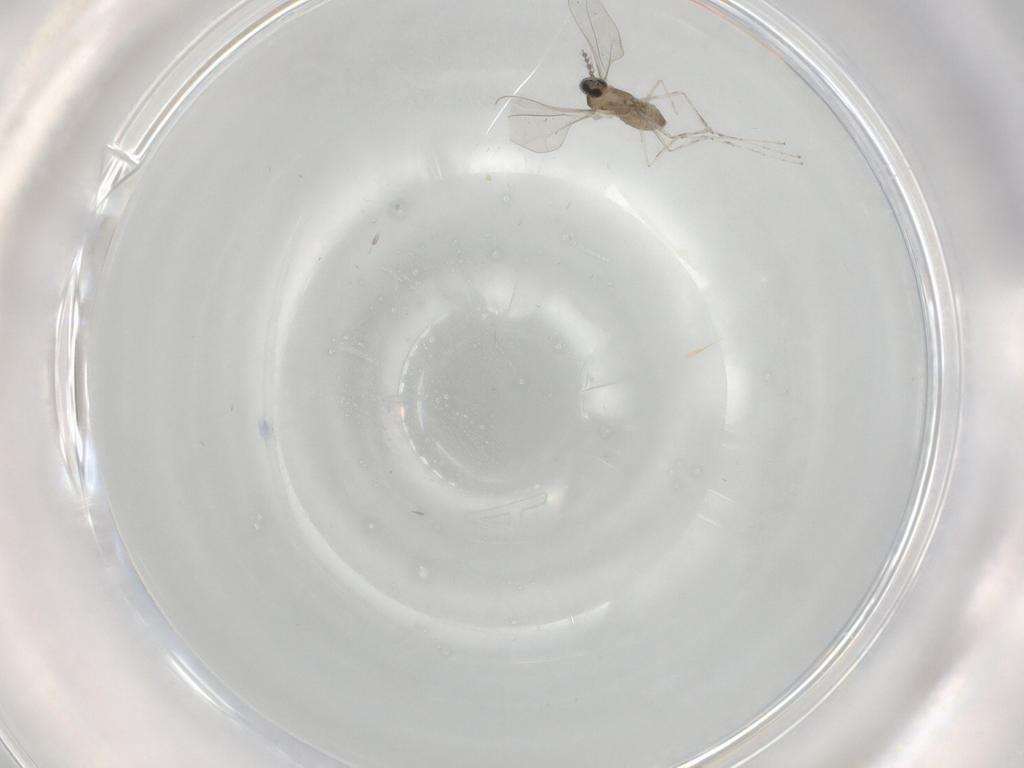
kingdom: Animalia
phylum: Arthropoda
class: Insecta
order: Diptera
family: Cecidomyiidae
